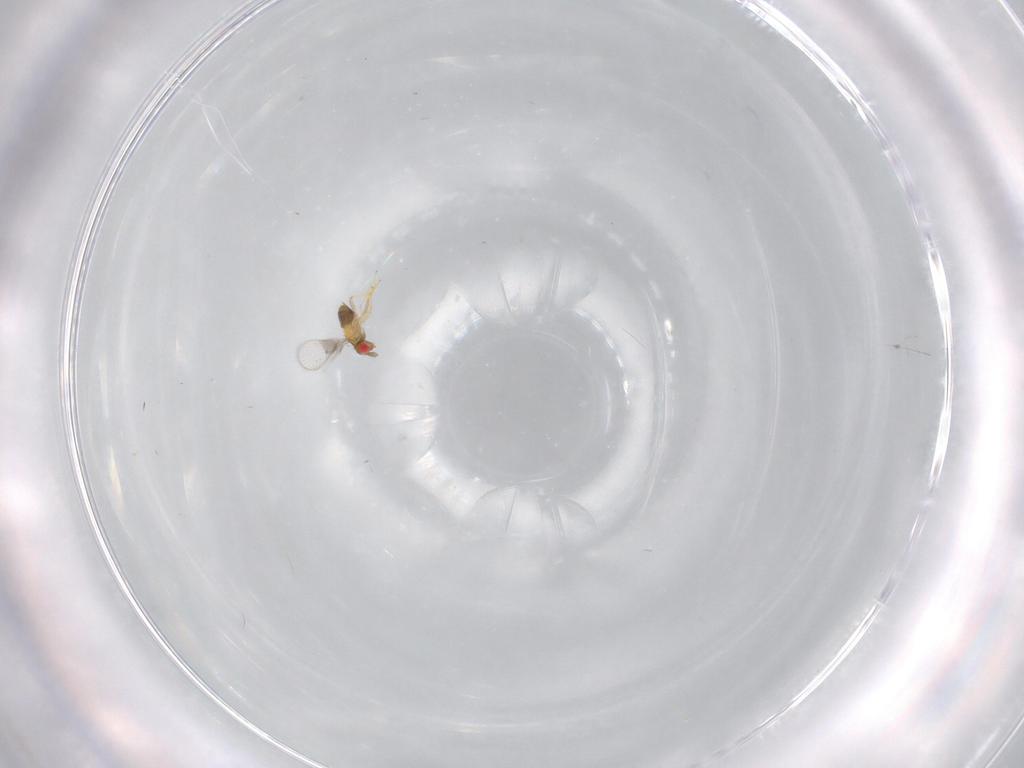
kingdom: Animalia
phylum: Arthropoda
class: Insecta
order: Hymenoptera
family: Trichogrammatidae
